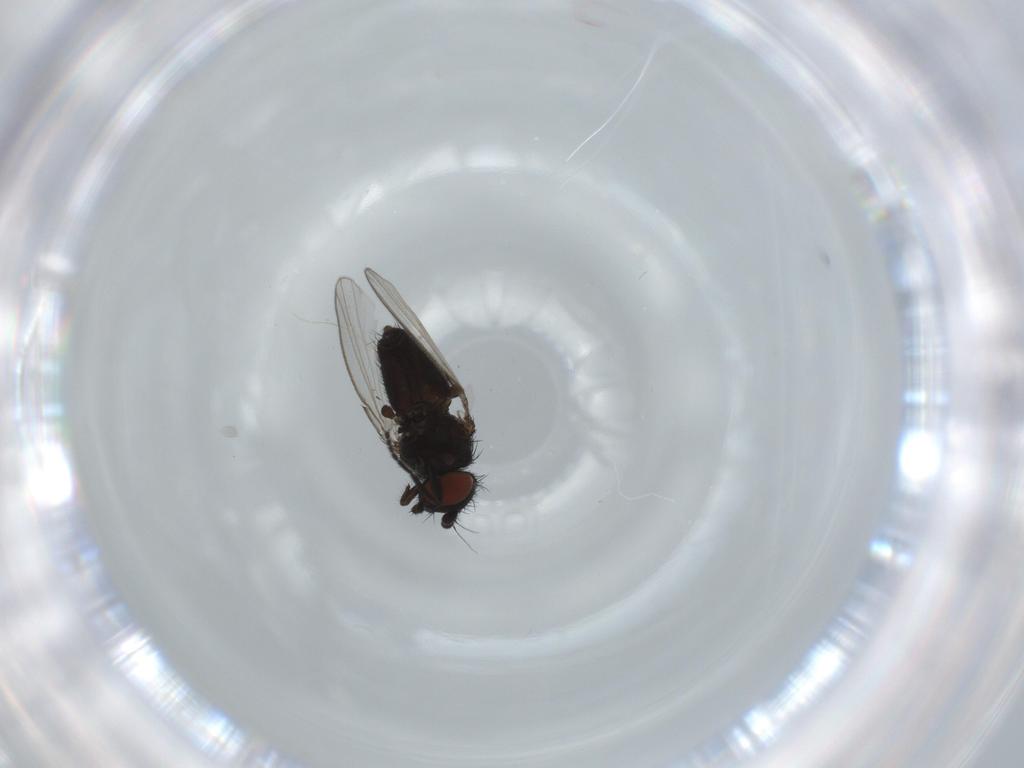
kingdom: Animalia
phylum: Arthropoda
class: Insecta
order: Diptera
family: Milichiidae
